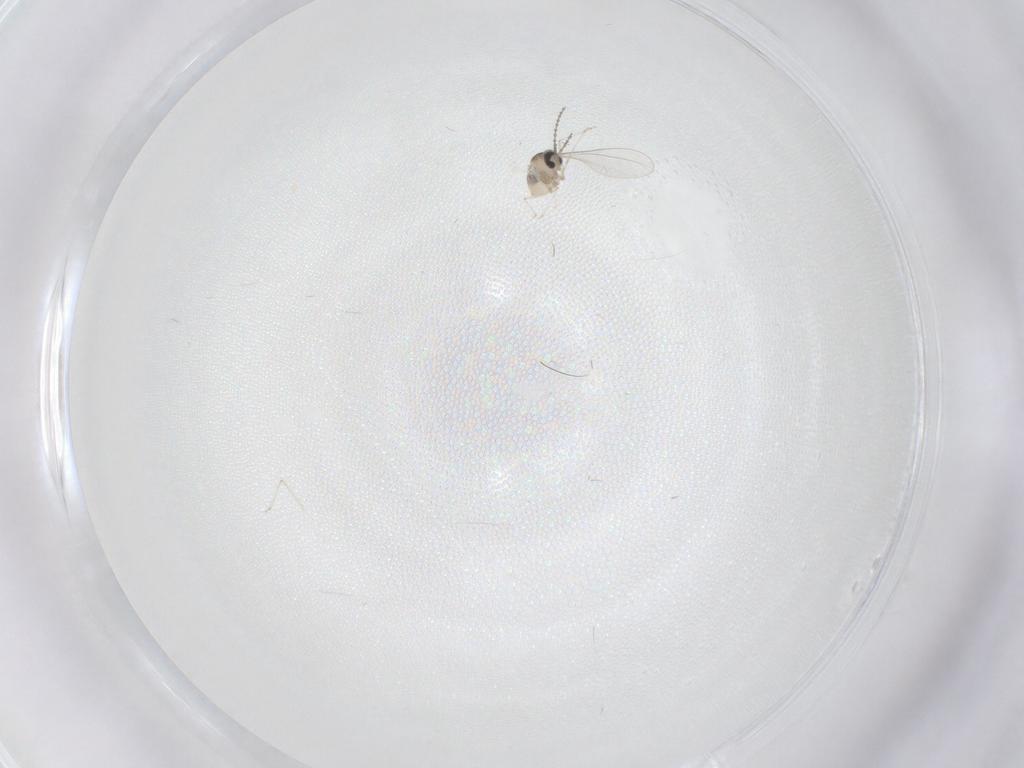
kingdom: Animalia
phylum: Arthropoda
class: Insecta
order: Diptera
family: Cecidomyiidae
